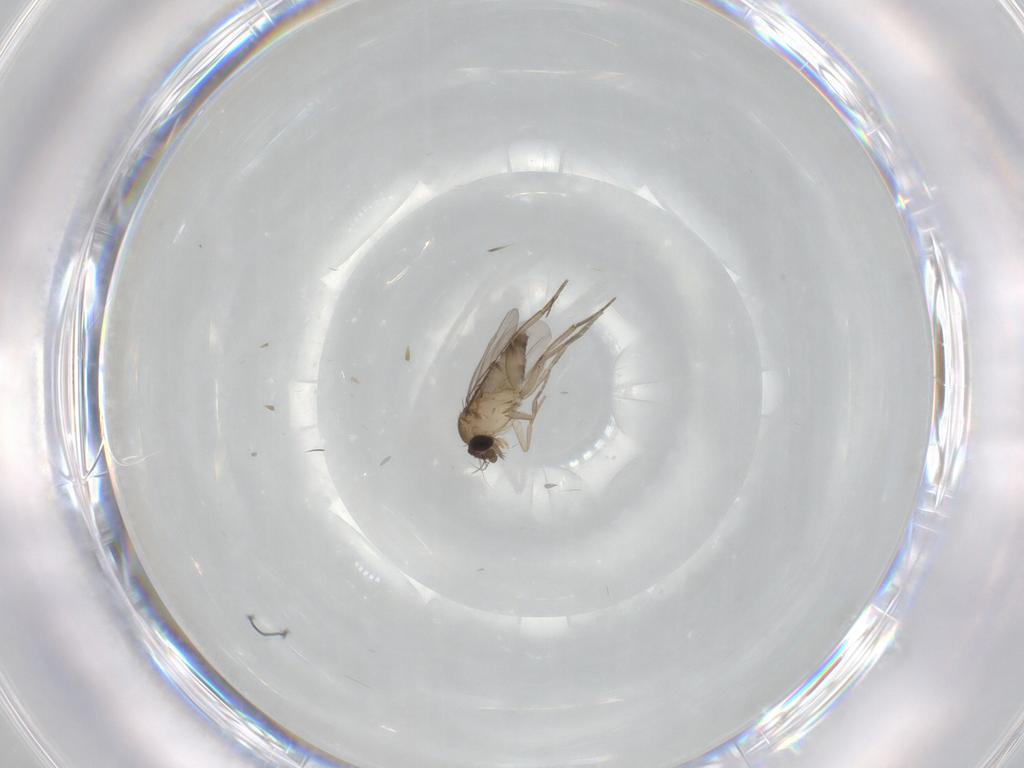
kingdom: Animalia
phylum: Arthropoda
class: Insecta
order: Diptera
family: Phoridae
